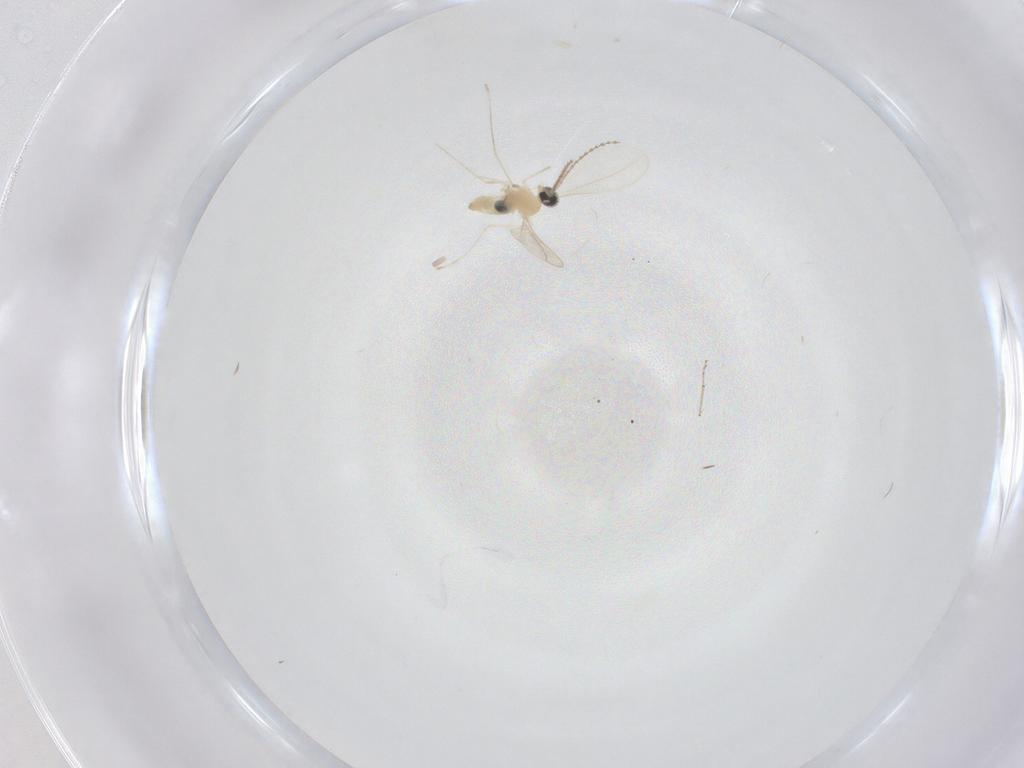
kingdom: Animalia
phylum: Arthropoda
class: Insecta
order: Diptera
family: Ceratopogonidae
